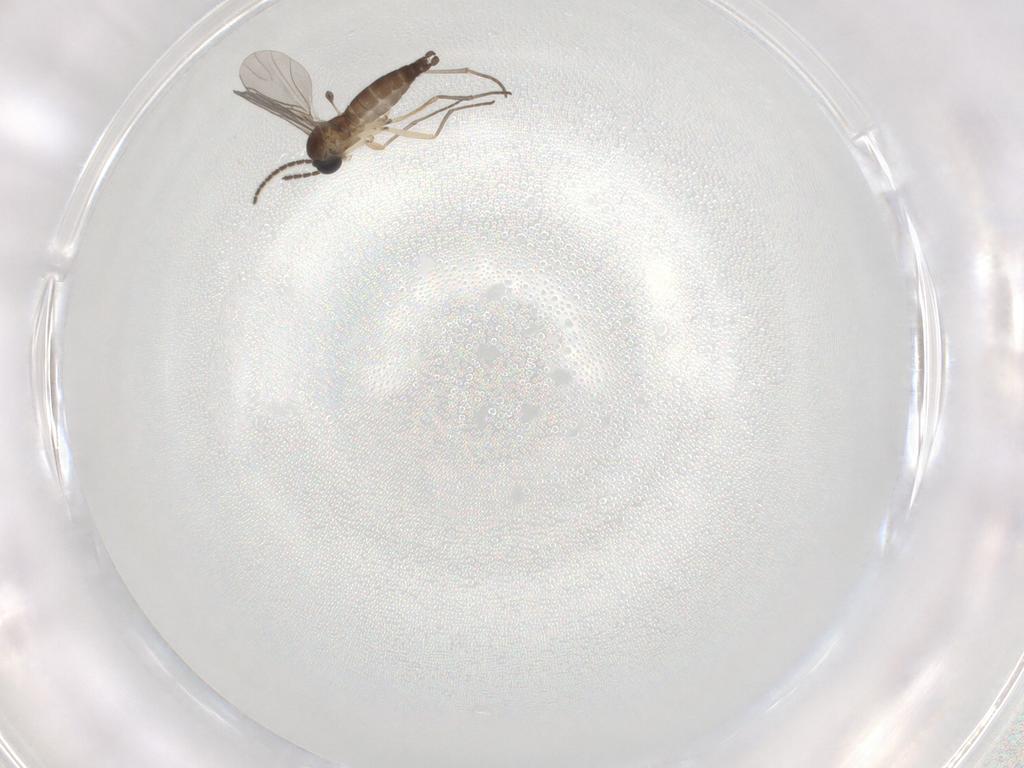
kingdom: Animalia
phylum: Arthropoda
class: Insecta
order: Diptera
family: Sciaridae
